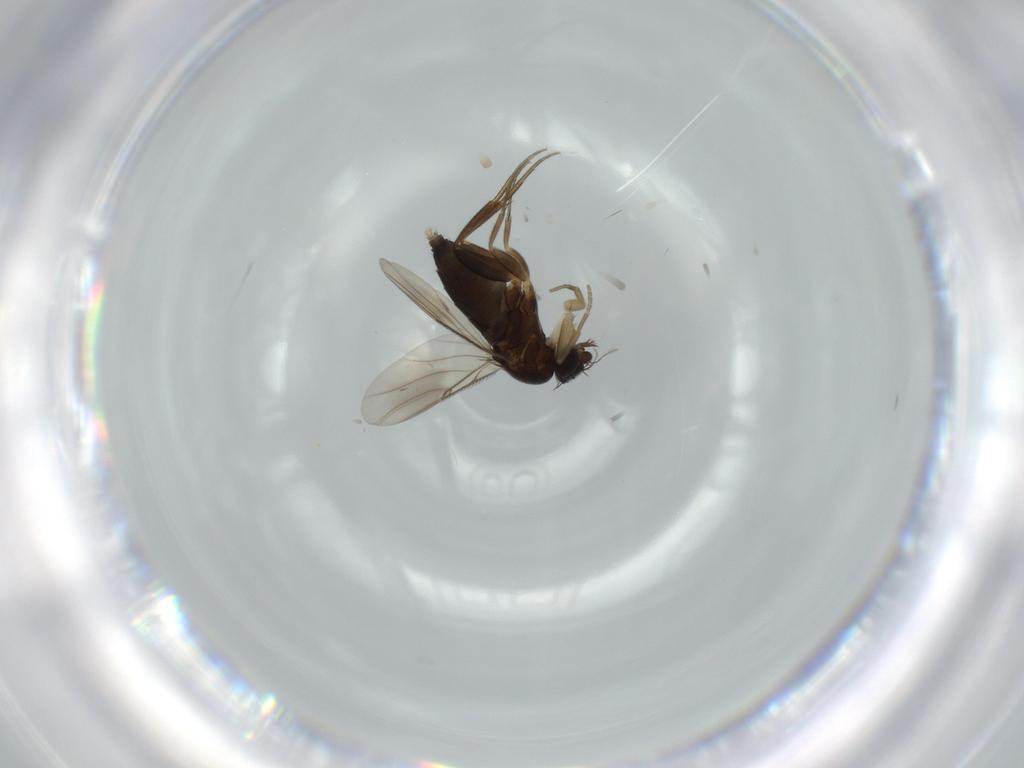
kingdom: Animalia
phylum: Arthropoda
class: Insecta
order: Diptera
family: Phoridae
